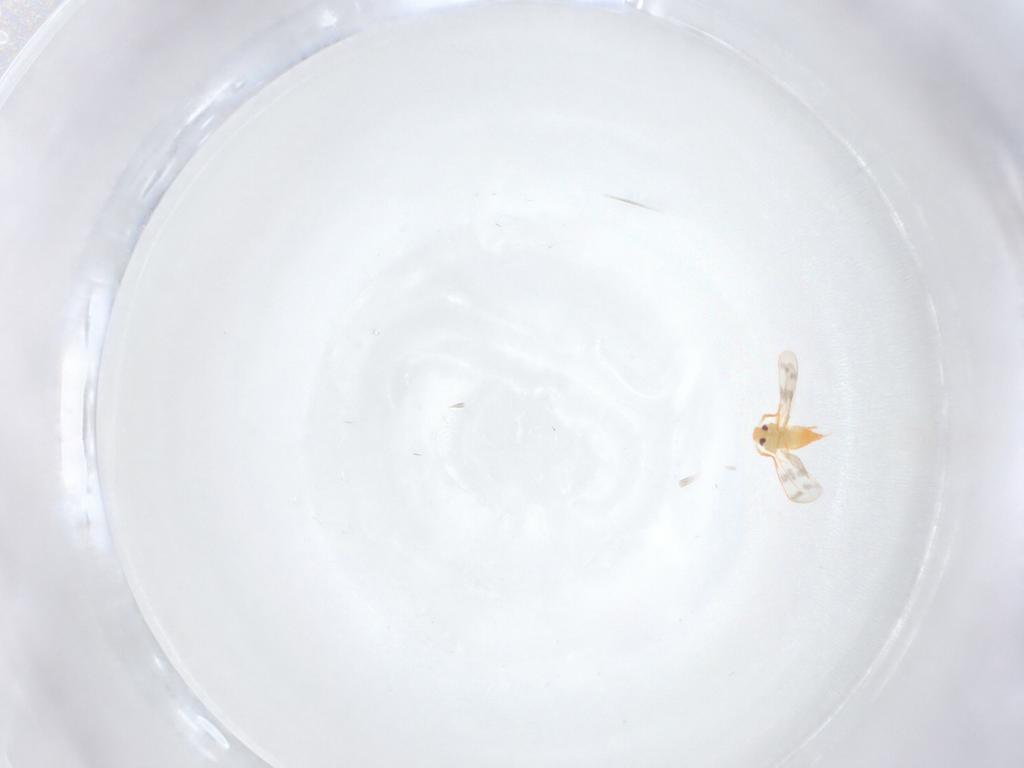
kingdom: Animalia
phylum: Arthropoda
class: Insecta
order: Hemiptera
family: Aleyrodidae
